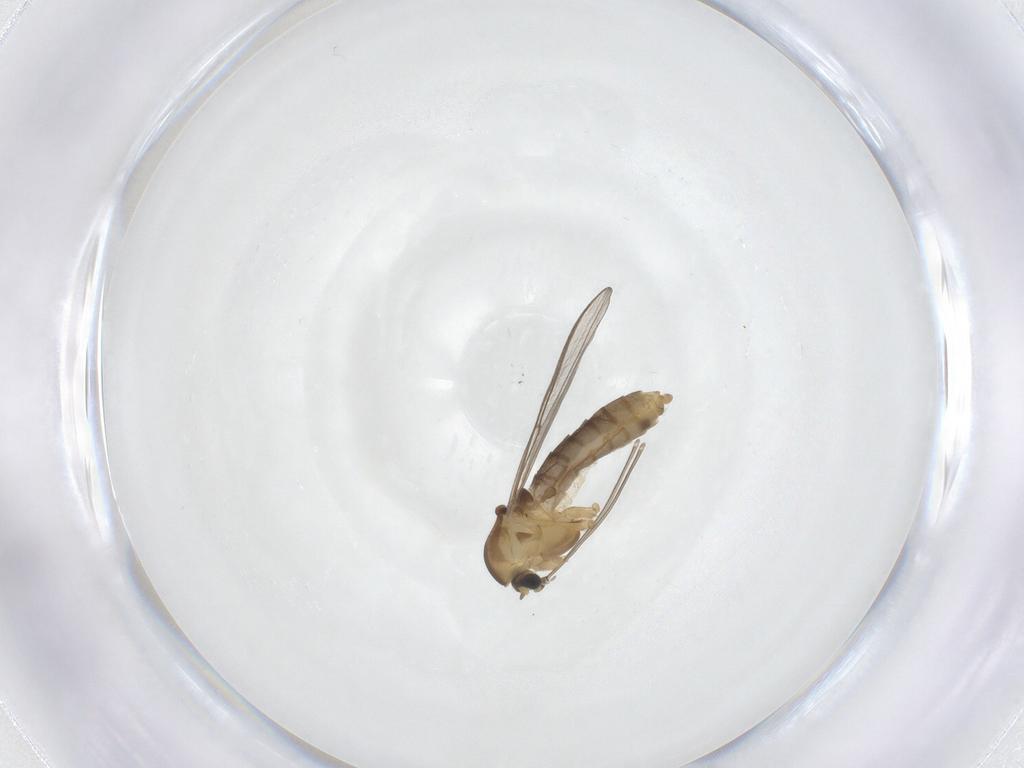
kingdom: Animalia
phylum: Arthropoda
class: Insecta
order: Diptera
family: Chironomidae
